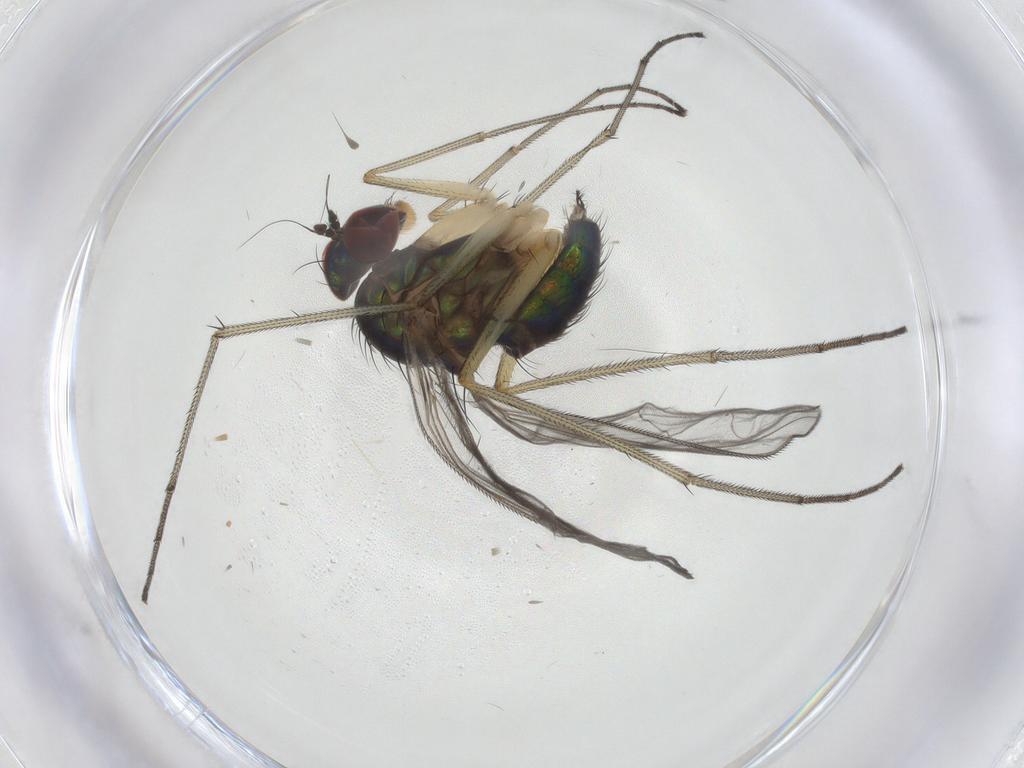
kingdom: Animalia
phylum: Arthropoda
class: Insecta
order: Diptera
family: Dolichopodidae
